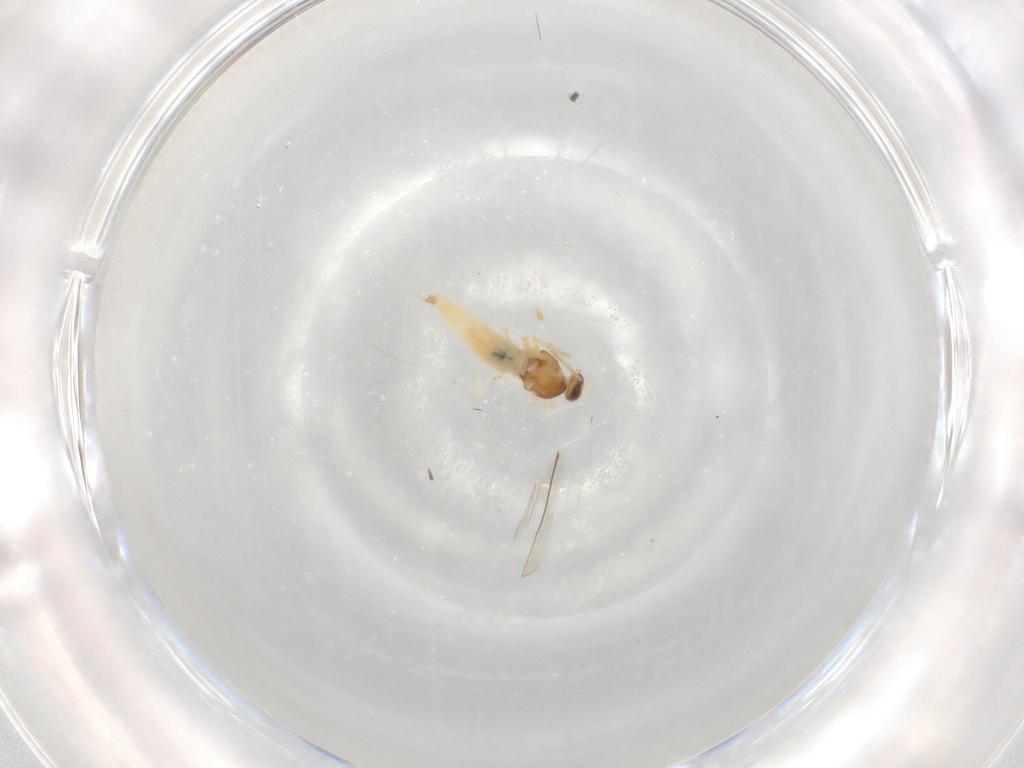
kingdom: Animalia
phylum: Arthropoda
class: Insecta
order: Diptera
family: Cecidomyiidae
